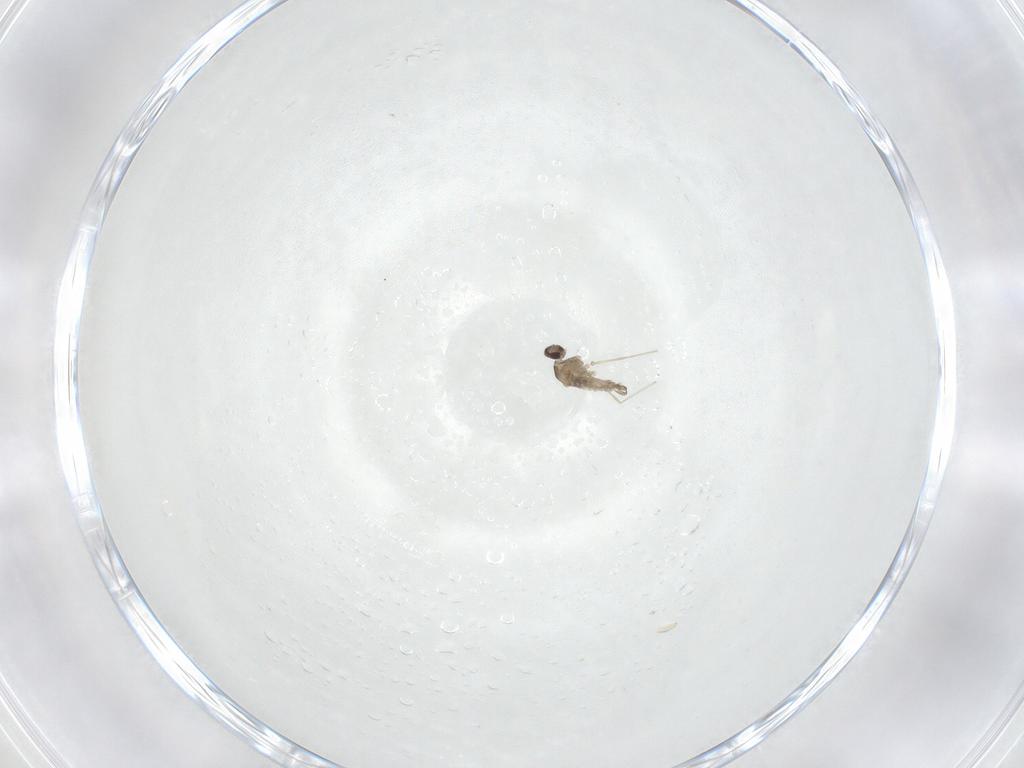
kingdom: Animalia
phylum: Arthropoda
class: Insecta
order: Diptera
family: Cecidomyiidae
